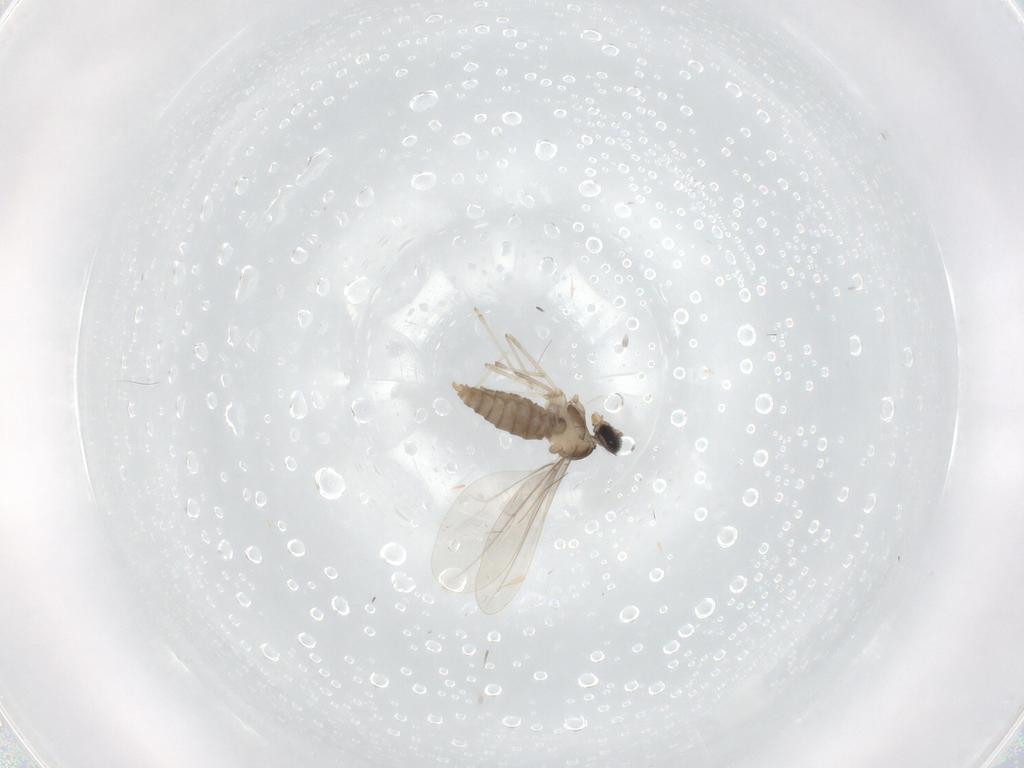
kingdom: Animalia
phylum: Arthropoda
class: Insecta
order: Diptera
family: Cecidomyiidae
